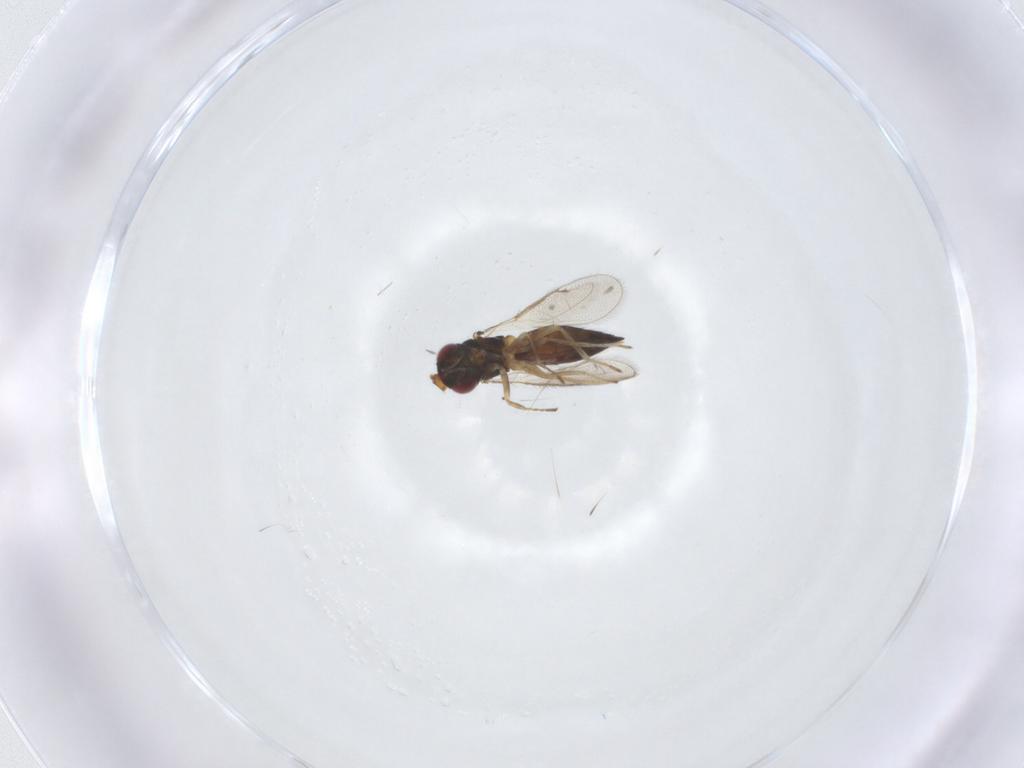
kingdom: Animalia
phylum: Arthropoda
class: Insecta
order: Hymenoptera
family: Eulophidae
